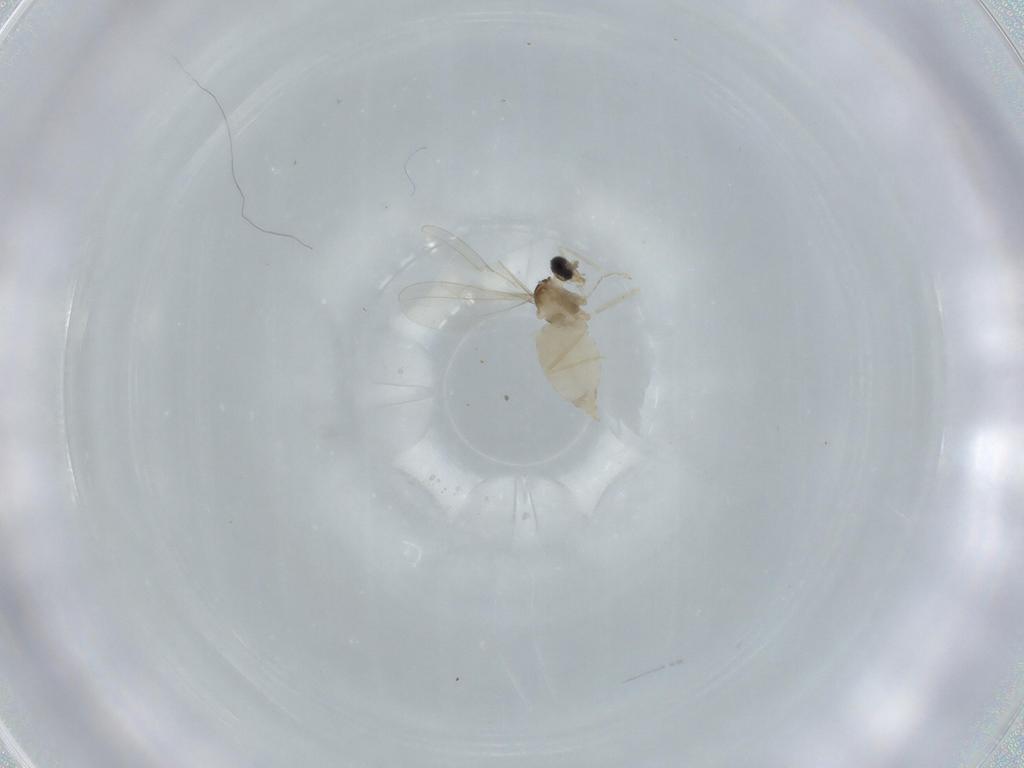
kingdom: Animalia
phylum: Arthropoda
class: Insecta
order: Diptera
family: Cecidomyiidae
